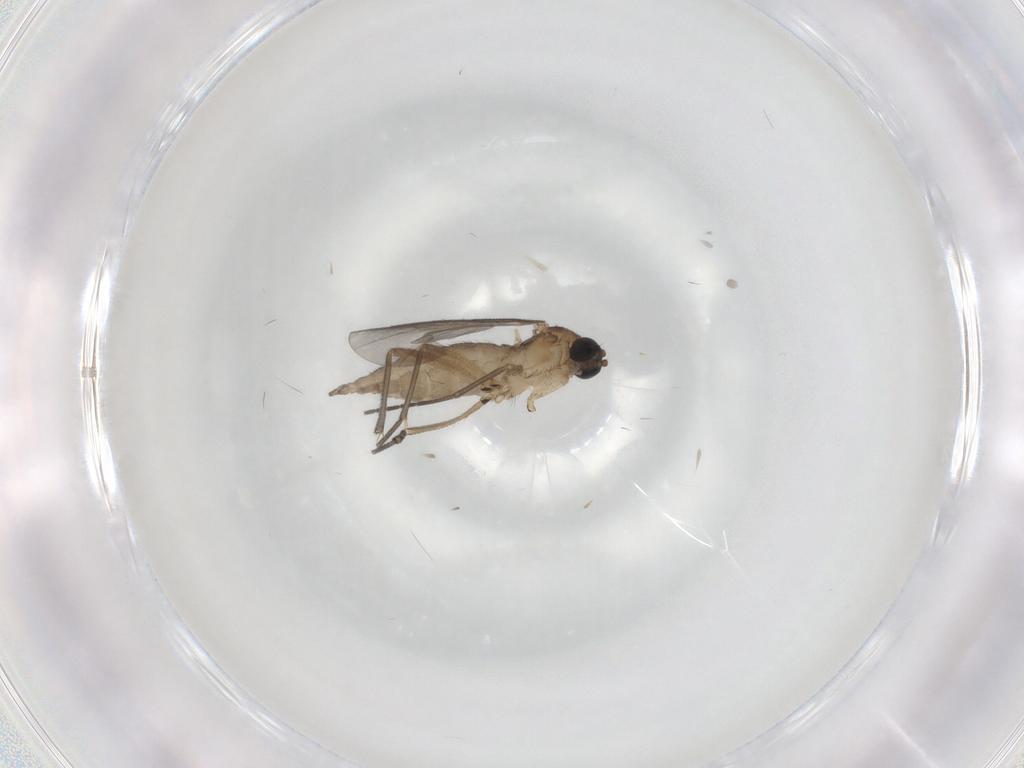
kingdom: Animalia
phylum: Arthropoda
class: Insecta
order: Diptera
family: Sciaridae
